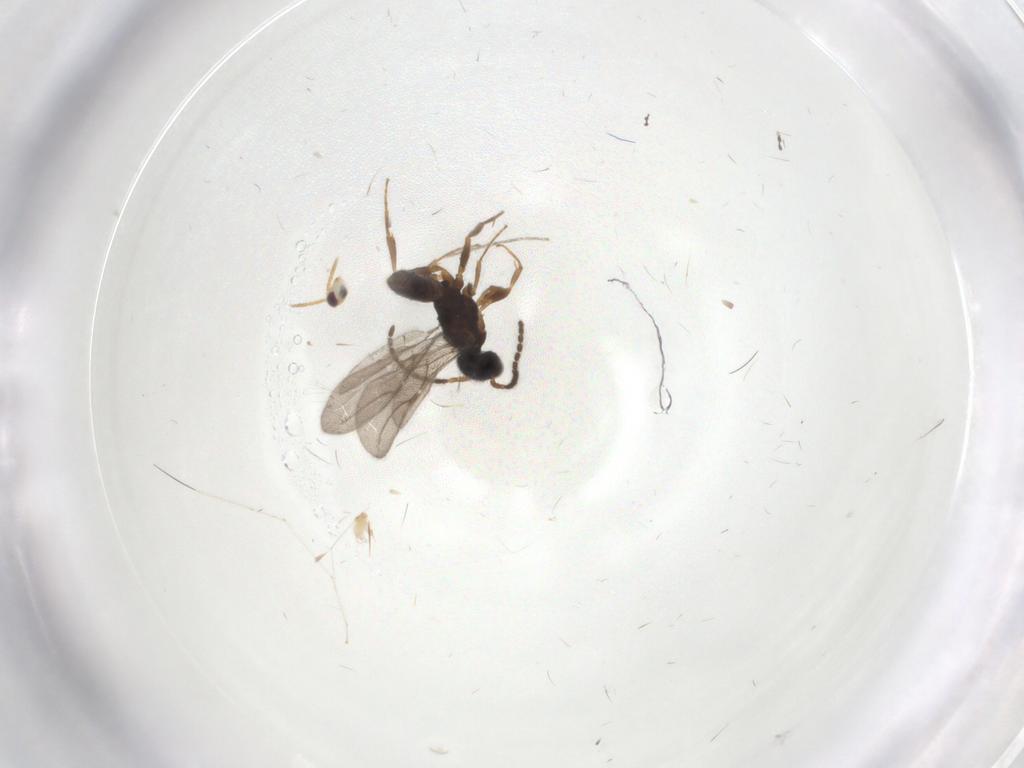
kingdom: Animalia
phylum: Arthropoda
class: Insecta
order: Hymenoptera
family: Bethylidae
